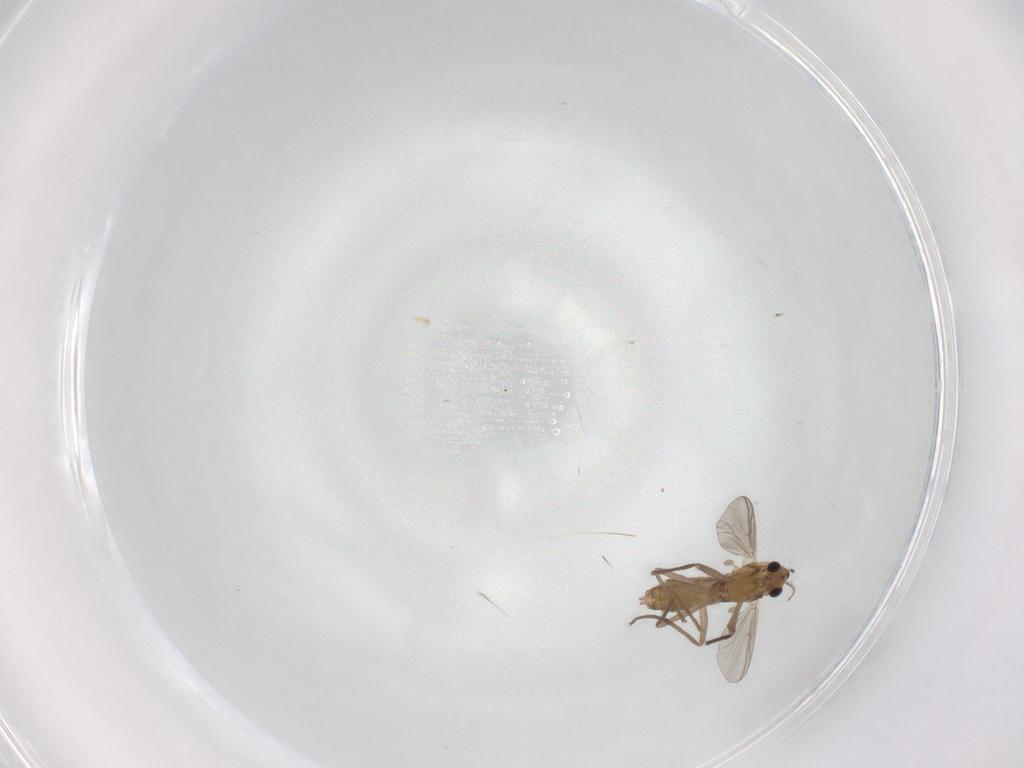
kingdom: Animalia
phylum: Arthropoda
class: Insecta
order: Diptera
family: Chironomidae
